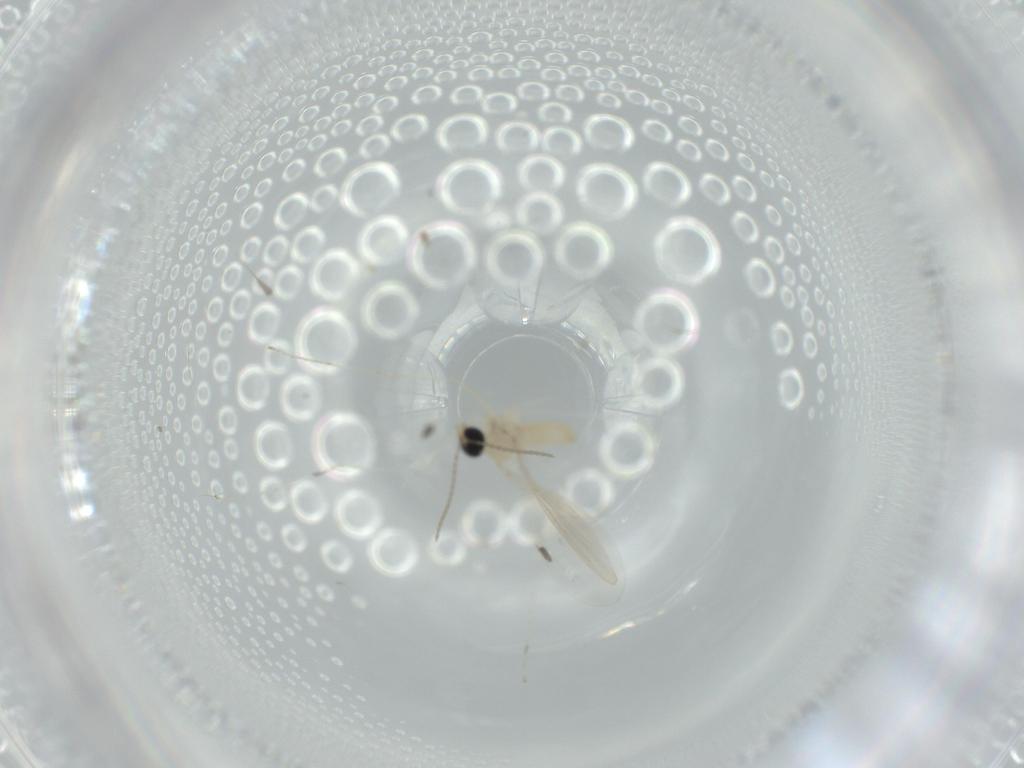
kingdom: Animalia
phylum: Arthropoda
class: Insecta
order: Diptera
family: Cecidomyiidae
